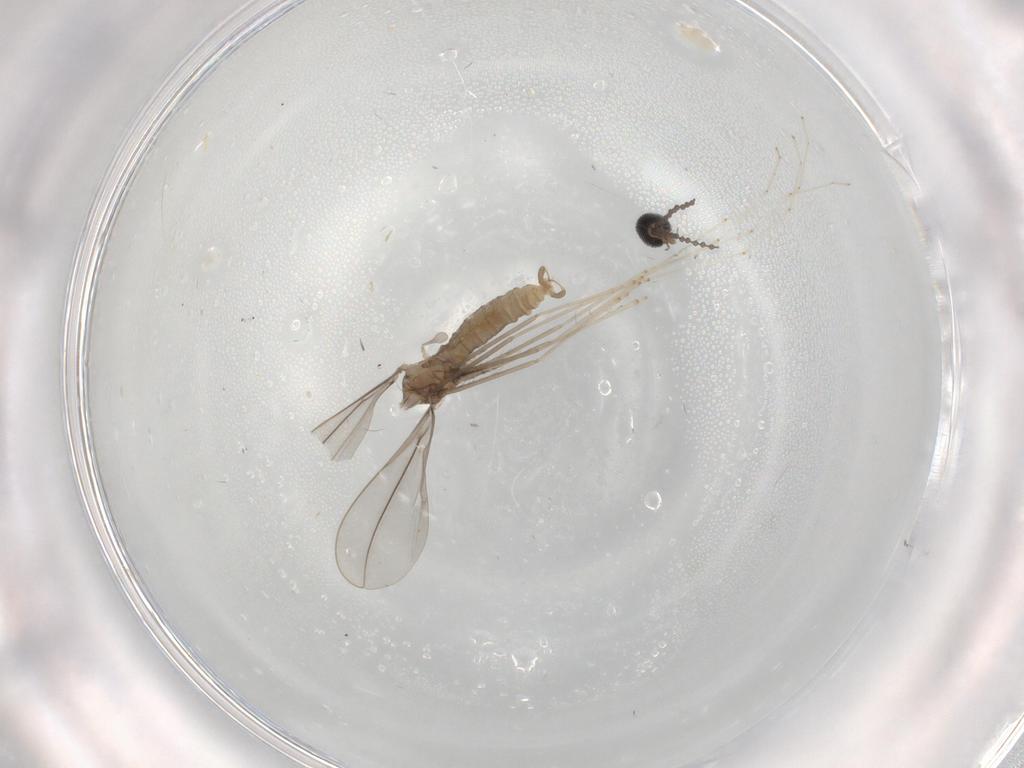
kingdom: Animalia
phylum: Arthropoda
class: Insecta
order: Diptera
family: Cecidomyiidae
